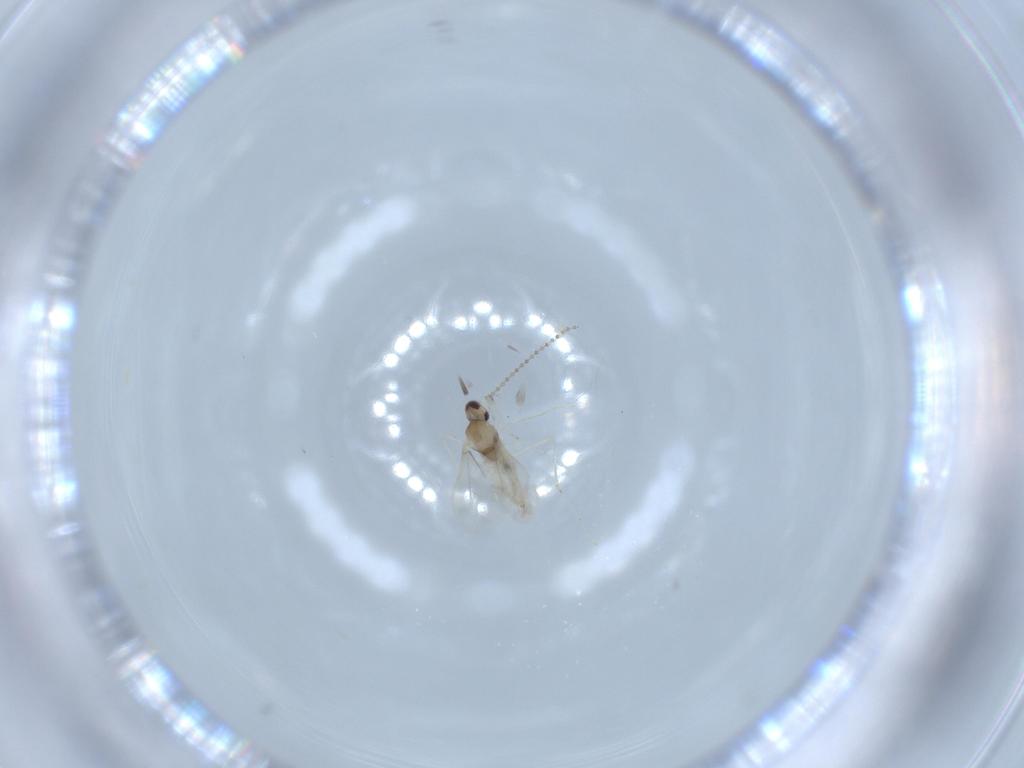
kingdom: Animalia
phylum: Arthropoda
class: Insecta
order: Diptera
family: Cecidomyiidae
